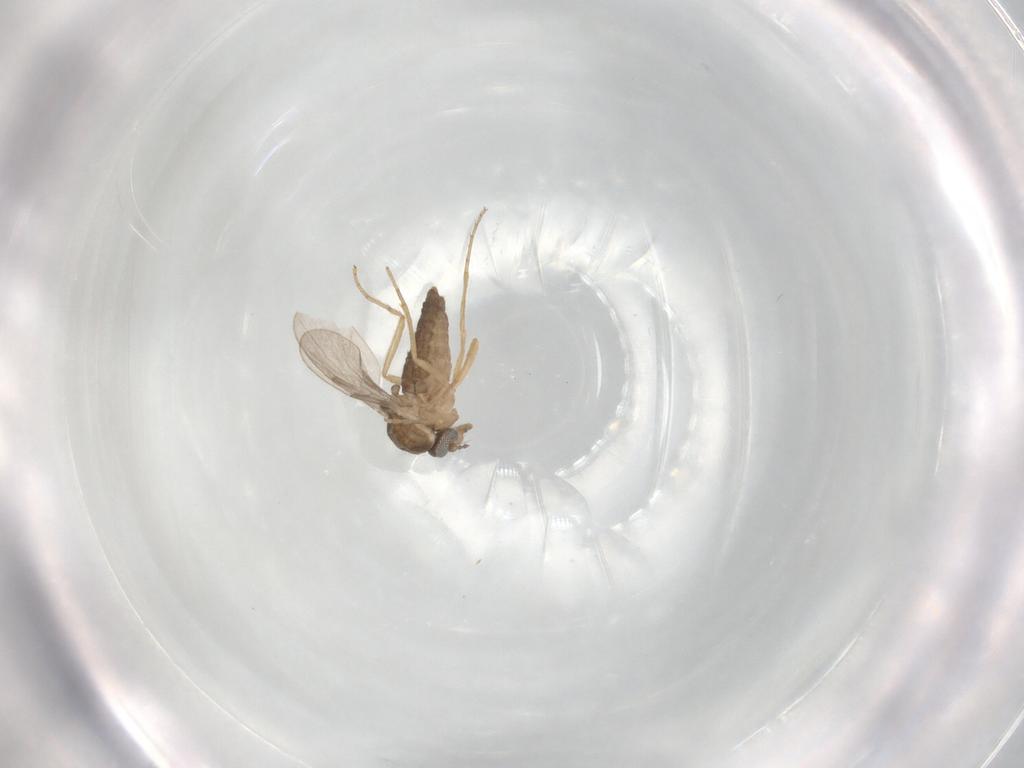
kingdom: Animalia
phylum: Arthropoda
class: Insecta
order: Diptera
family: Ceratopogonidae
